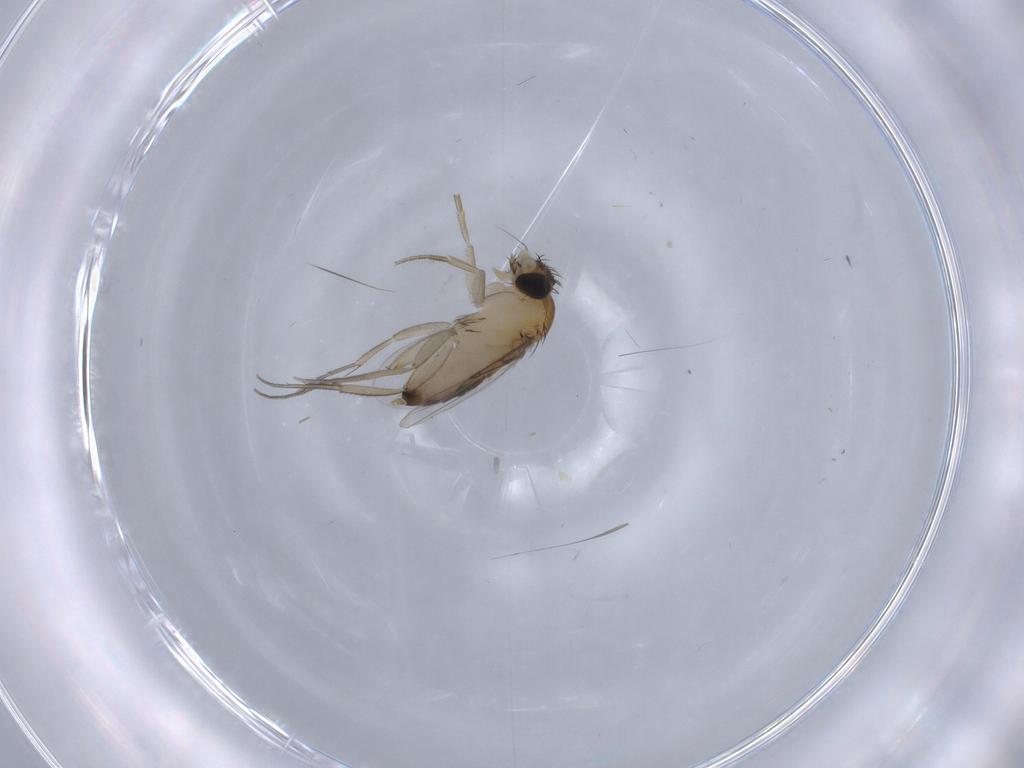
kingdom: Animalia
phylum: Arthropoda
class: Insecta
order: Diptera
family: Phoridae
